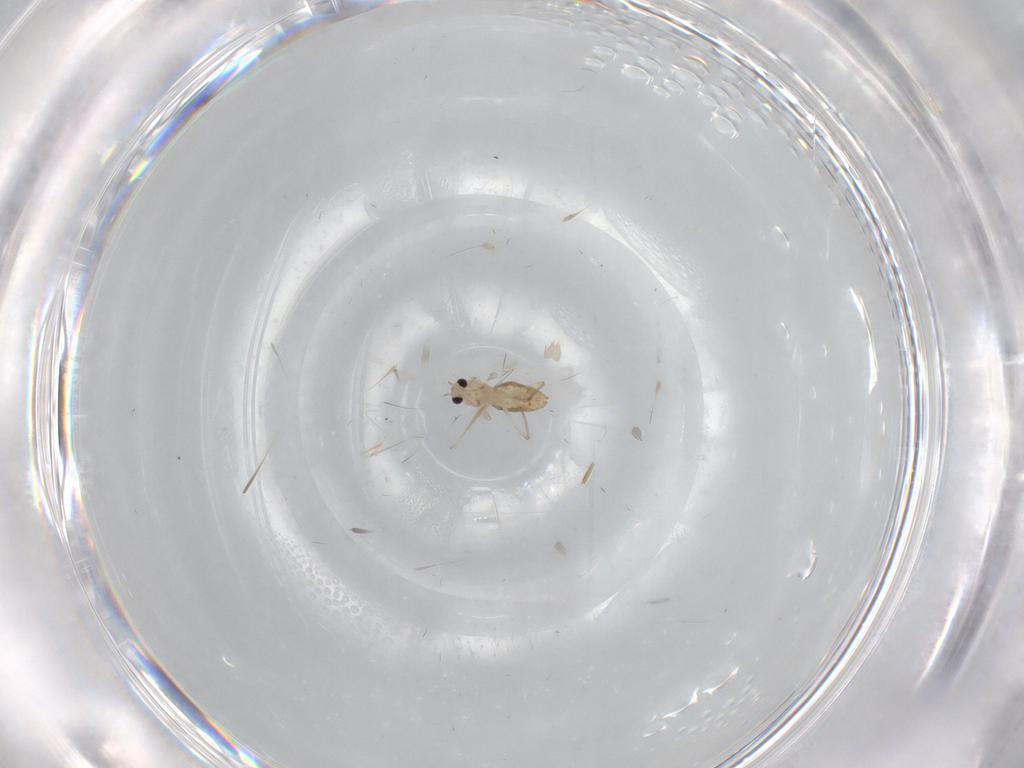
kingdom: Animalia
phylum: Arthropoda
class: Insecta
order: Diptera
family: Chironomidae
